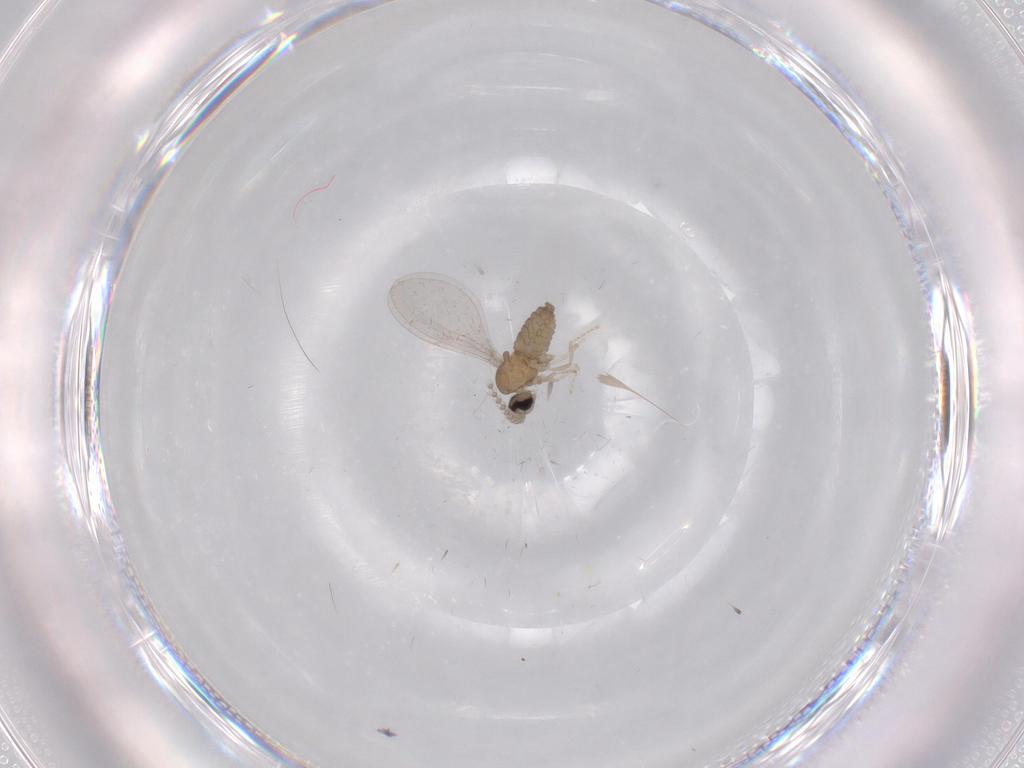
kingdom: Animalia
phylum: Arthropoda
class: Insecta
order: Diptera
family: Cecidomyiidae
